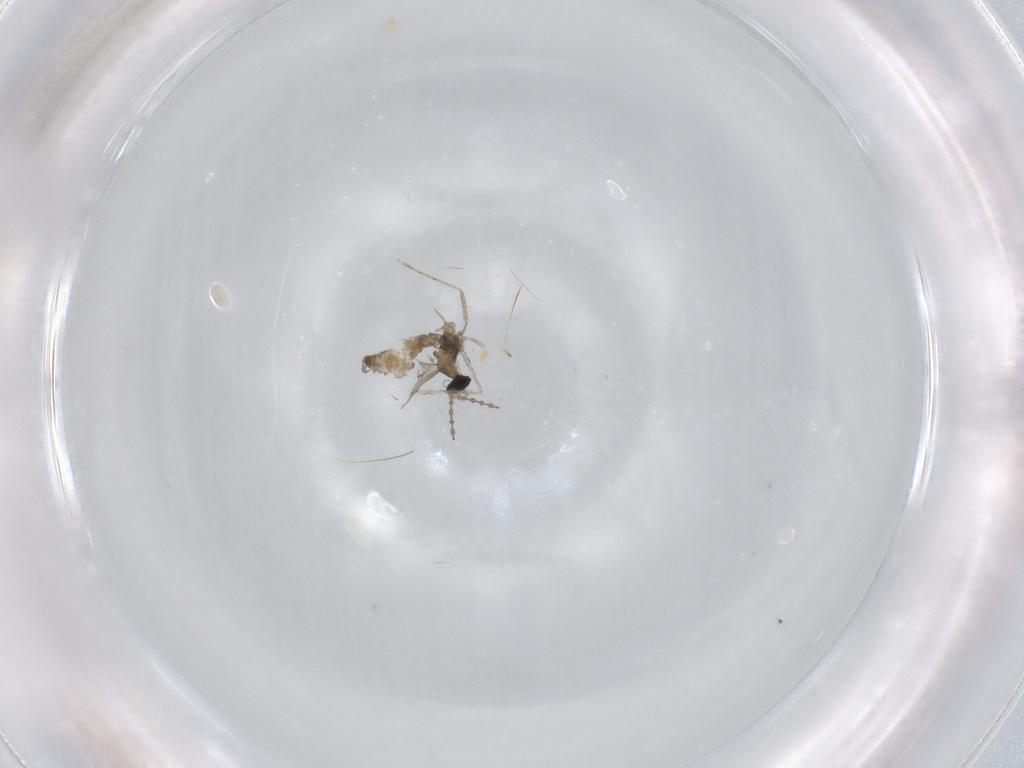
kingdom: Animalia
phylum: Arthropoda
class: Insecta
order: Diptera
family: Cecidomyiidae
